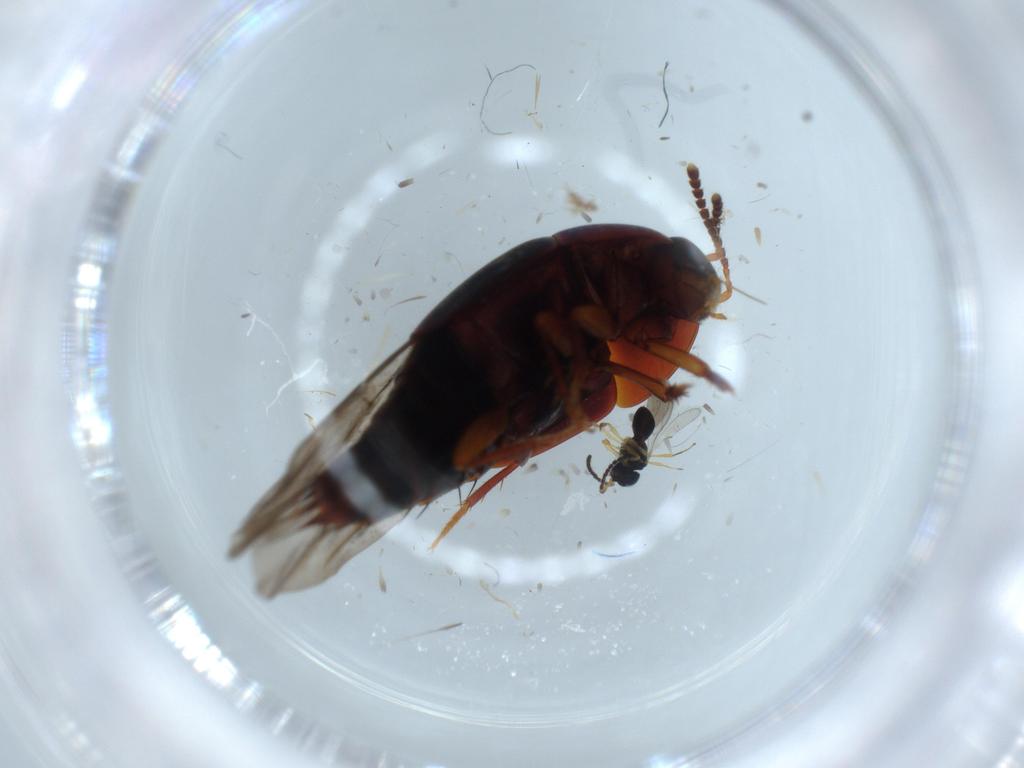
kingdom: Animalia
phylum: Arthropoda
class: Insecta
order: Coleoptera
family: Staphylinidae
